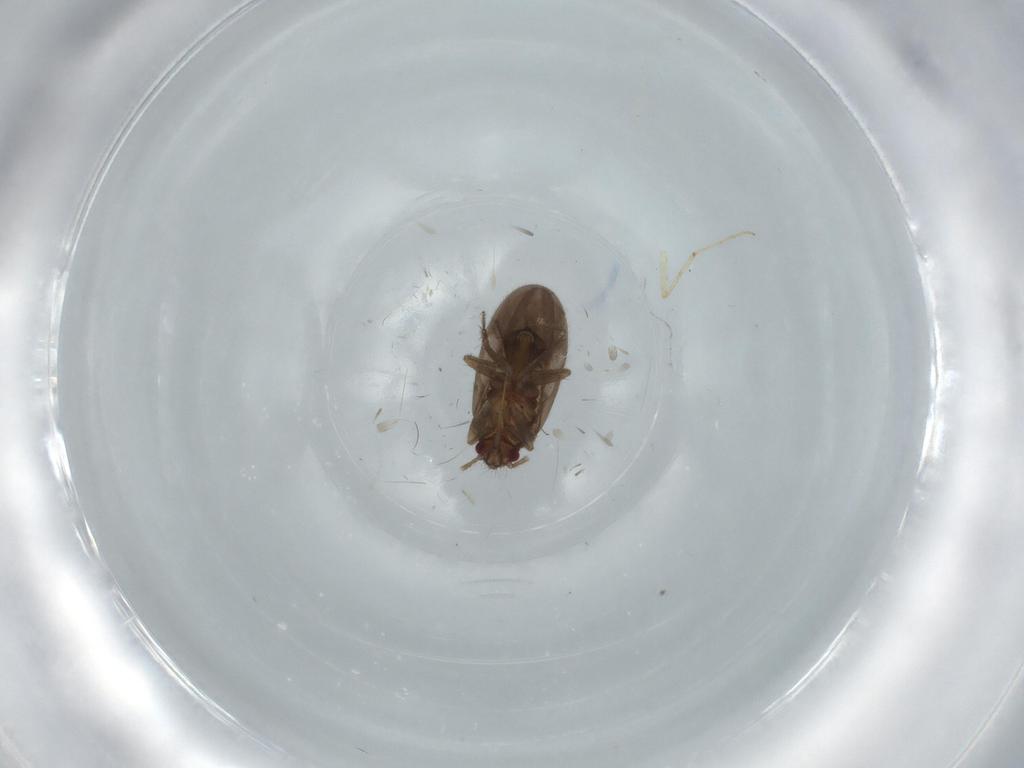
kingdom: Animalia
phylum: Arthropoda
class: Insecta
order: Hemiptera
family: Ceratocombidae
